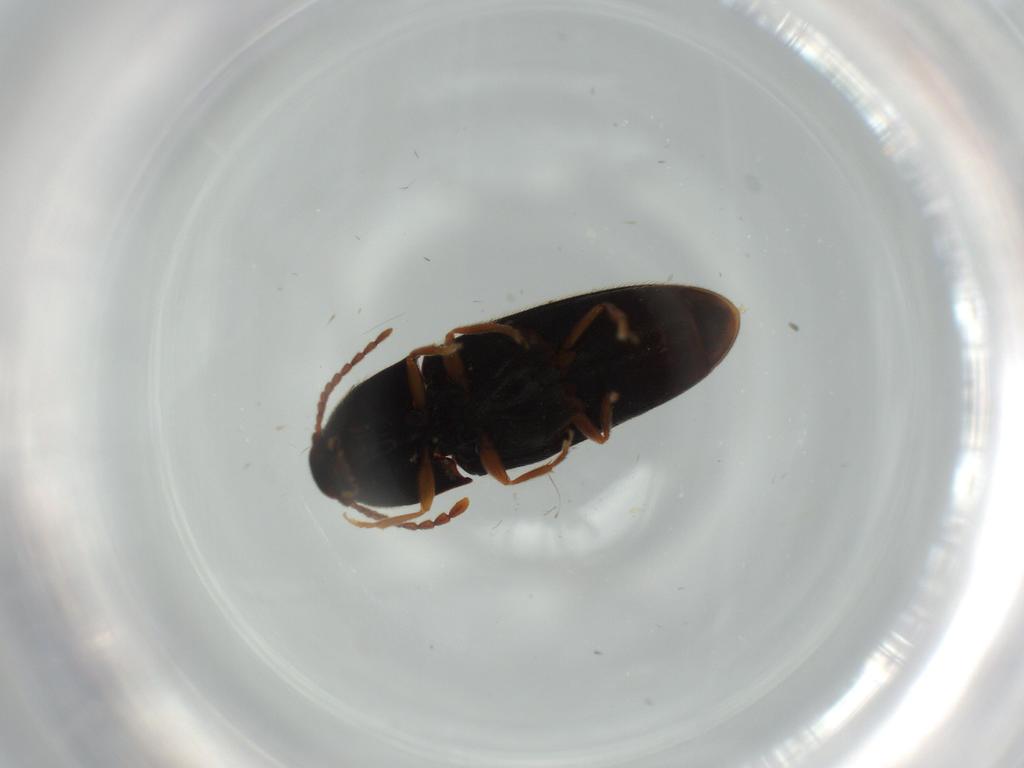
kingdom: Animalia
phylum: Arthropoda
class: Insecta
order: Coleoptera
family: Elateridae
